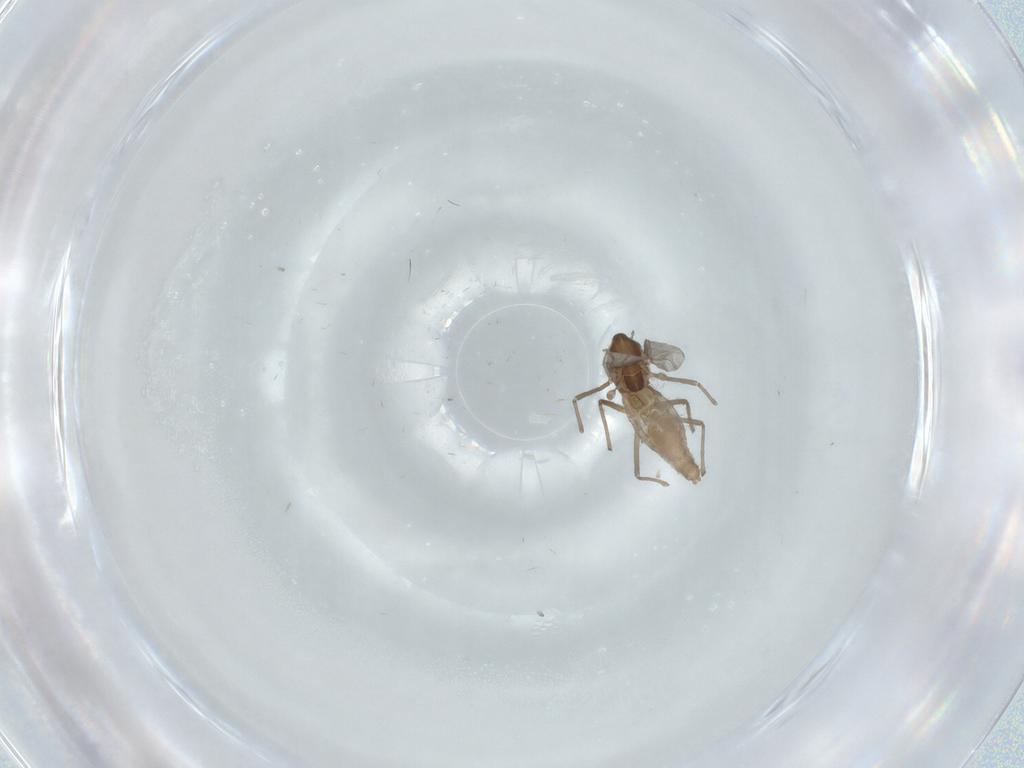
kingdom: Animalia
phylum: Arthropoda
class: Insecta
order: Diptera
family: Chironomidae
